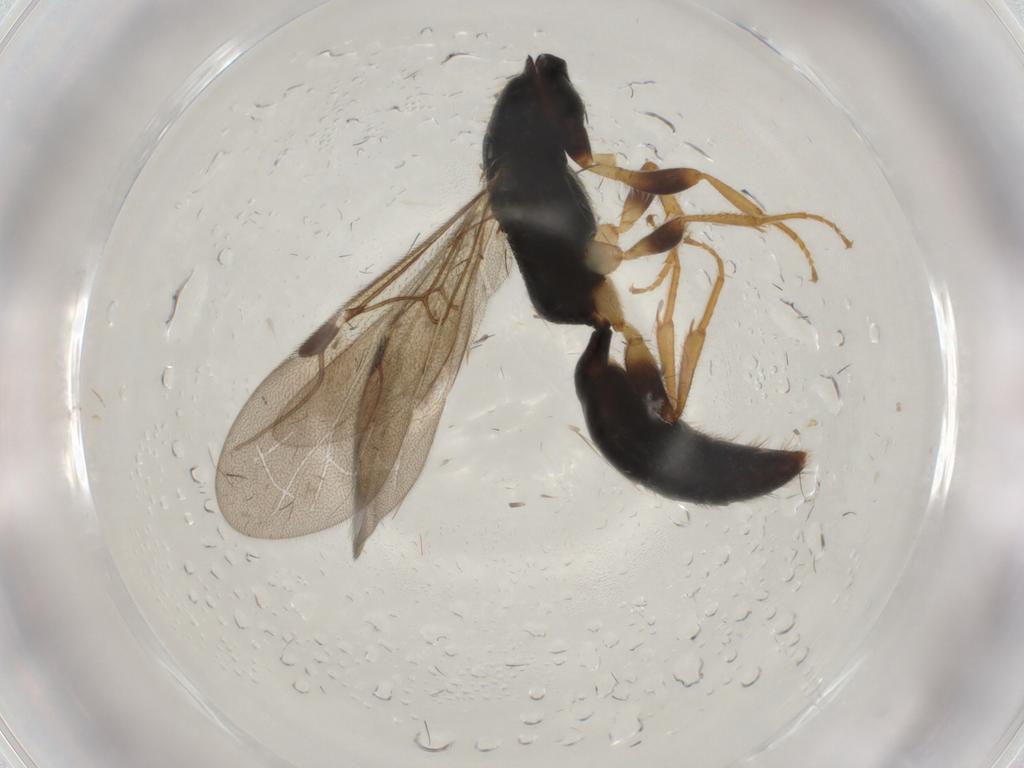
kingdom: Animalia
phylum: Arthropoda
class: Insecta
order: Hymenoptera
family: Bethylidae
